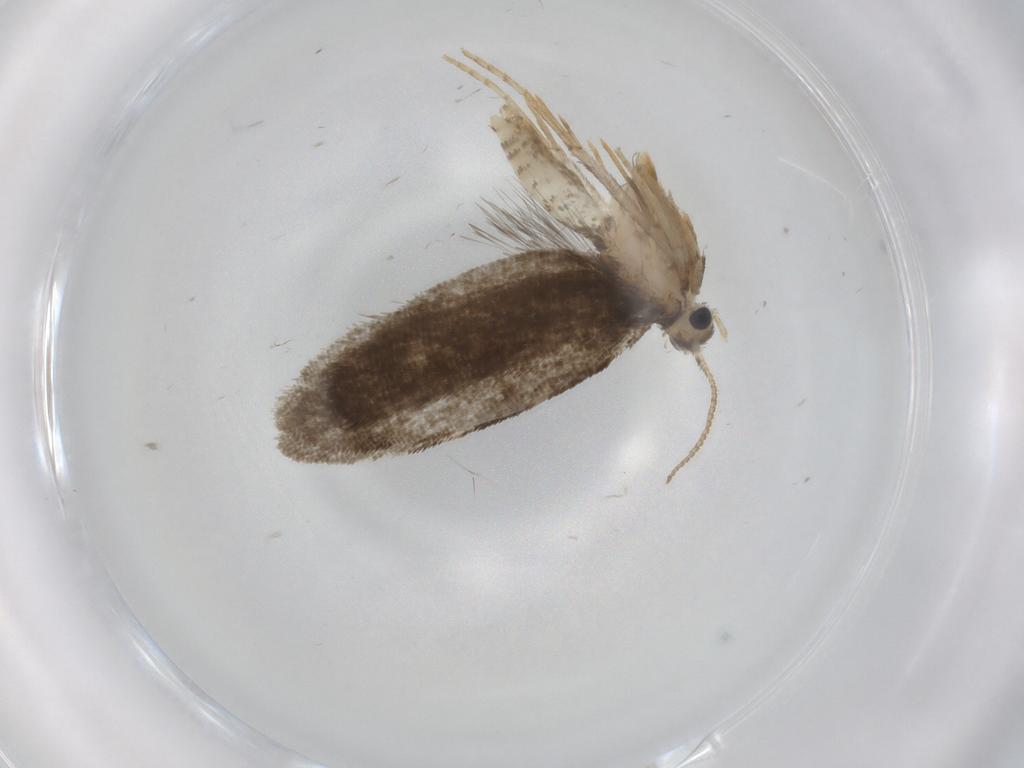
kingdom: Animalia
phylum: Arthropoda
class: Insecta
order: Lepidoptera
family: Psychidae
